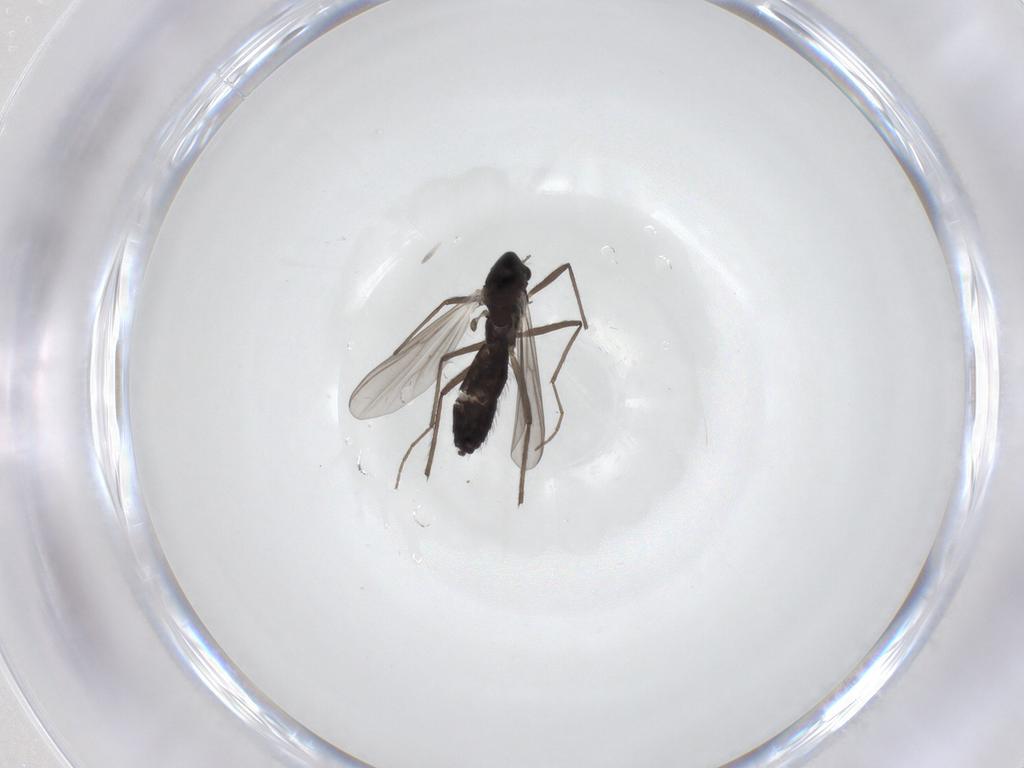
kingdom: Animalia
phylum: Arthropoda
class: Insecta
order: Diptera
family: Chironomidae
